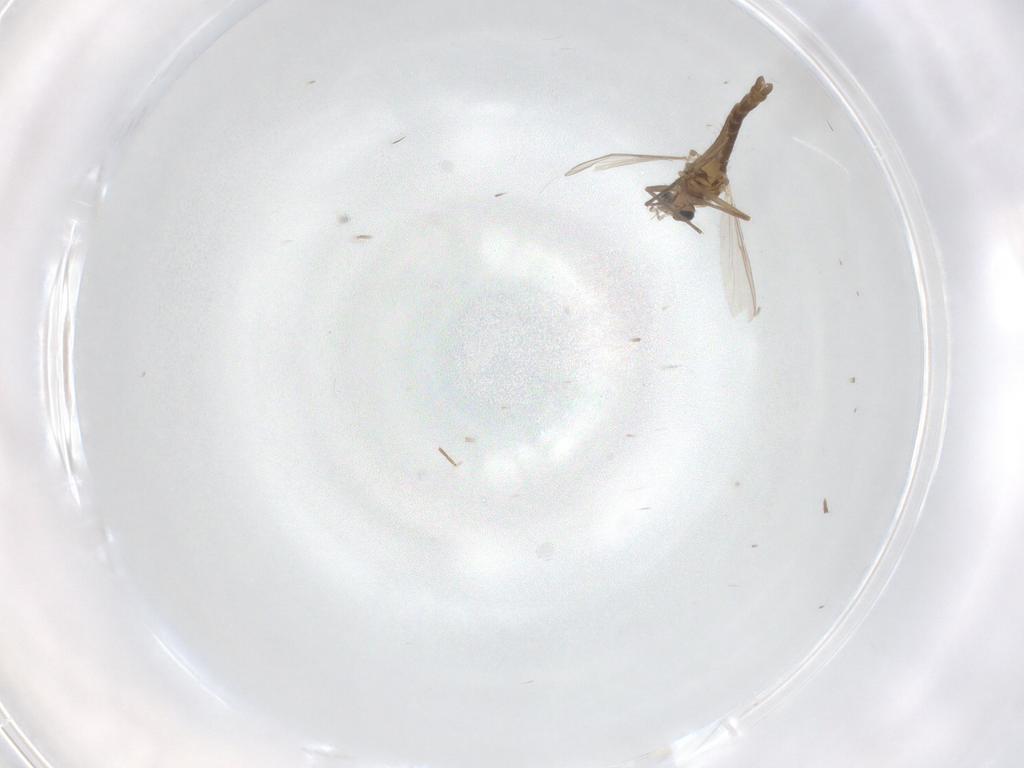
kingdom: Animalia
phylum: Arthropoda
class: Insecta
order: Diptera
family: Chironomidae
